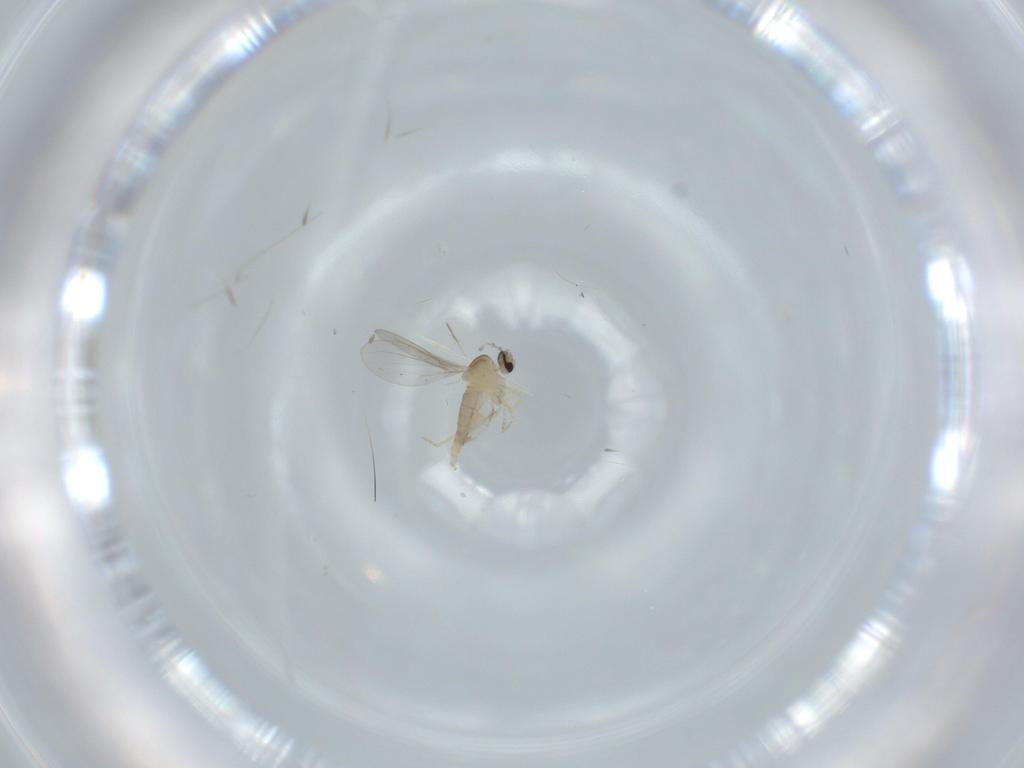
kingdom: Animalia
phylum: Arthropoda
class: Insecta
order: Diptera
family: Cecidomyiidae
